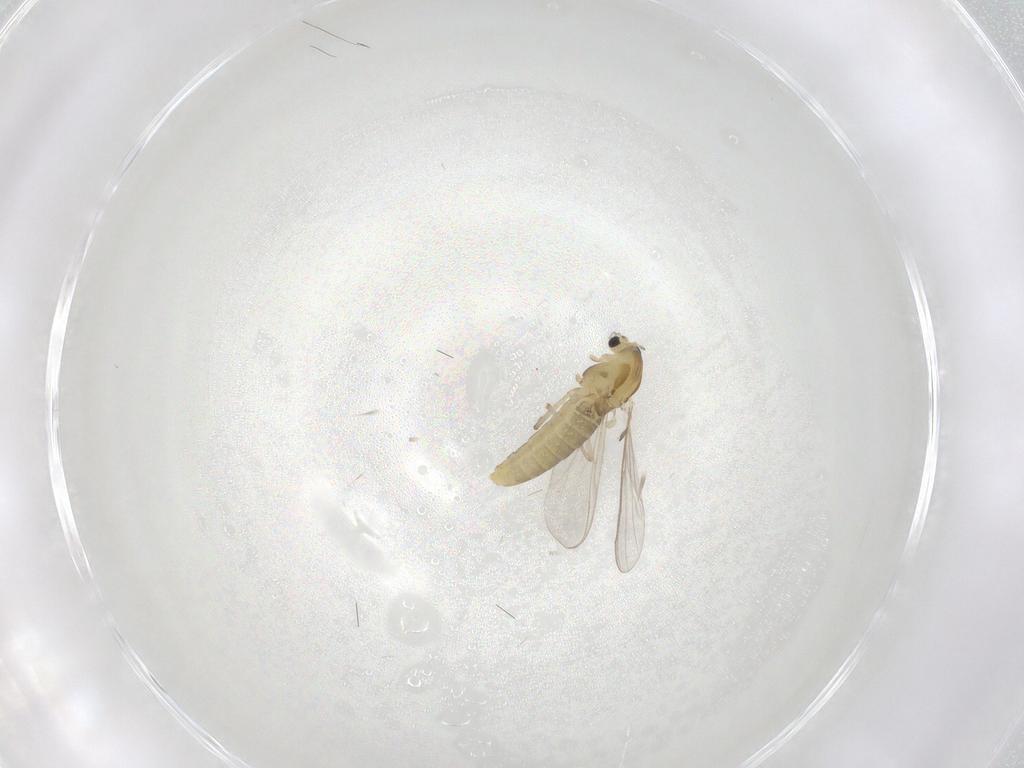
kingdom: Animalia
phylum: Arthropoda
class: Insecta
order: Diptera
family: Chironomidae
